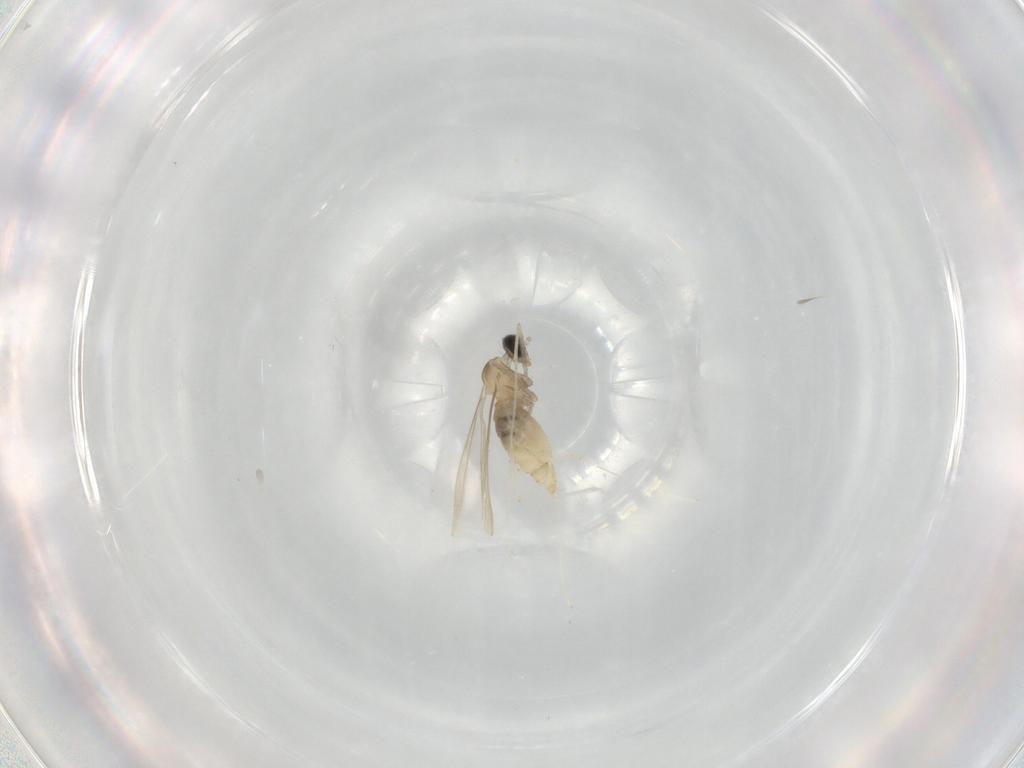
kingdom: Animalia
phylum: Arthropoda
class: Insecta
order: Diptera
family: Cecidomyiidae
